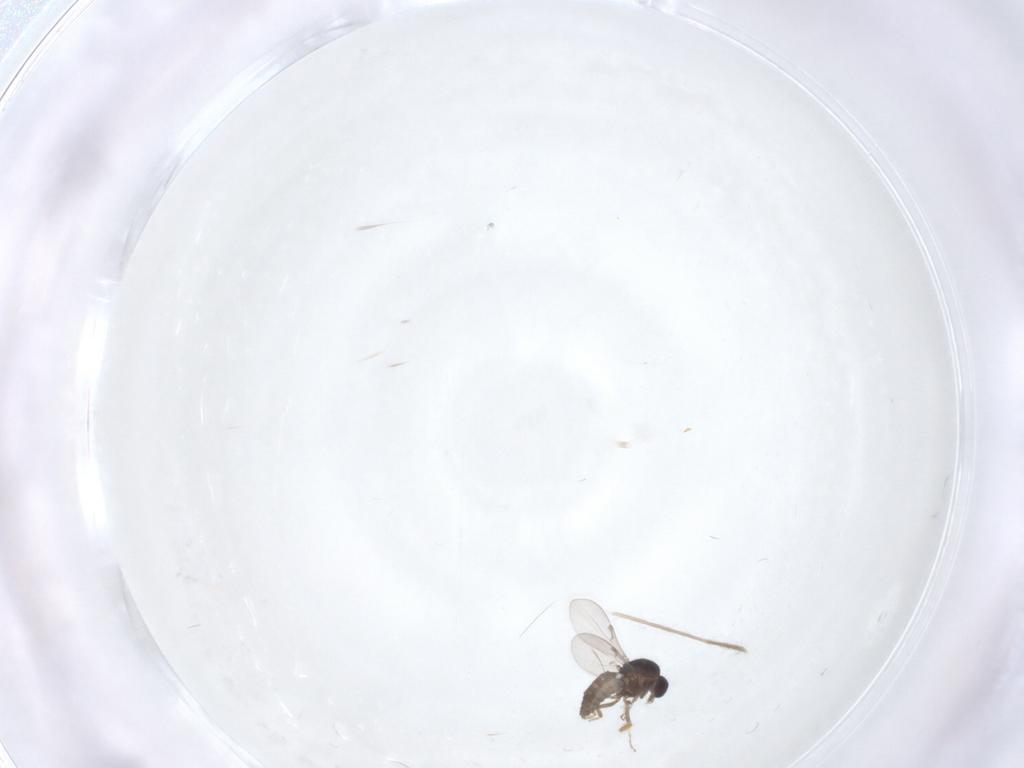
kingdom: Animalia
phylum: Arthropoda
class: Insecta
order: Diptera
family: Ceratopogonidae
